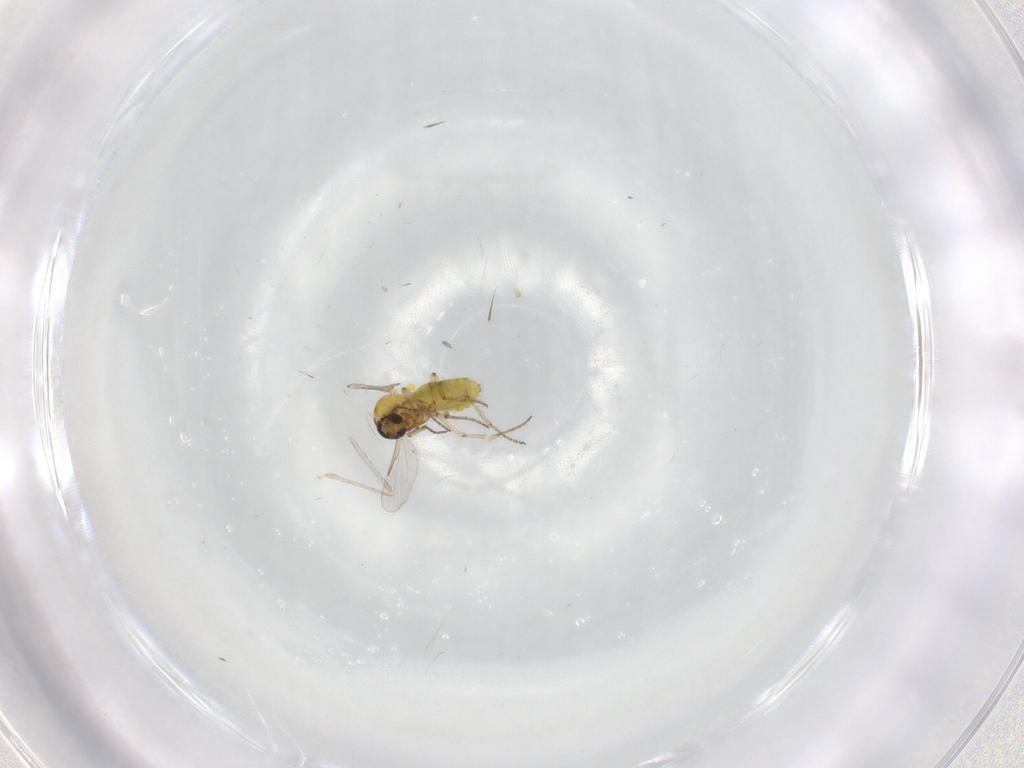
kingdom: Animalia
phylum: Arthropoda
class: Insecta
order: Diptera
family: Ceratopogonidae
